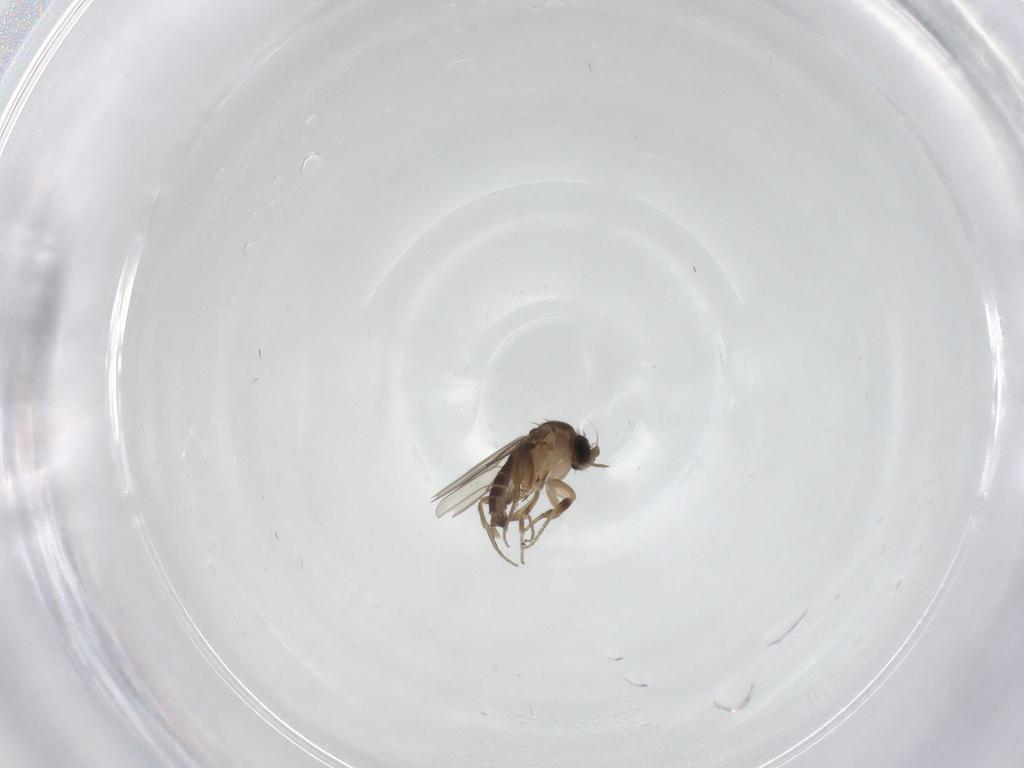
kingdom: Animalia
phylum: Arthropoda
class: Insecta
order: Diptera
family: Phoridae
